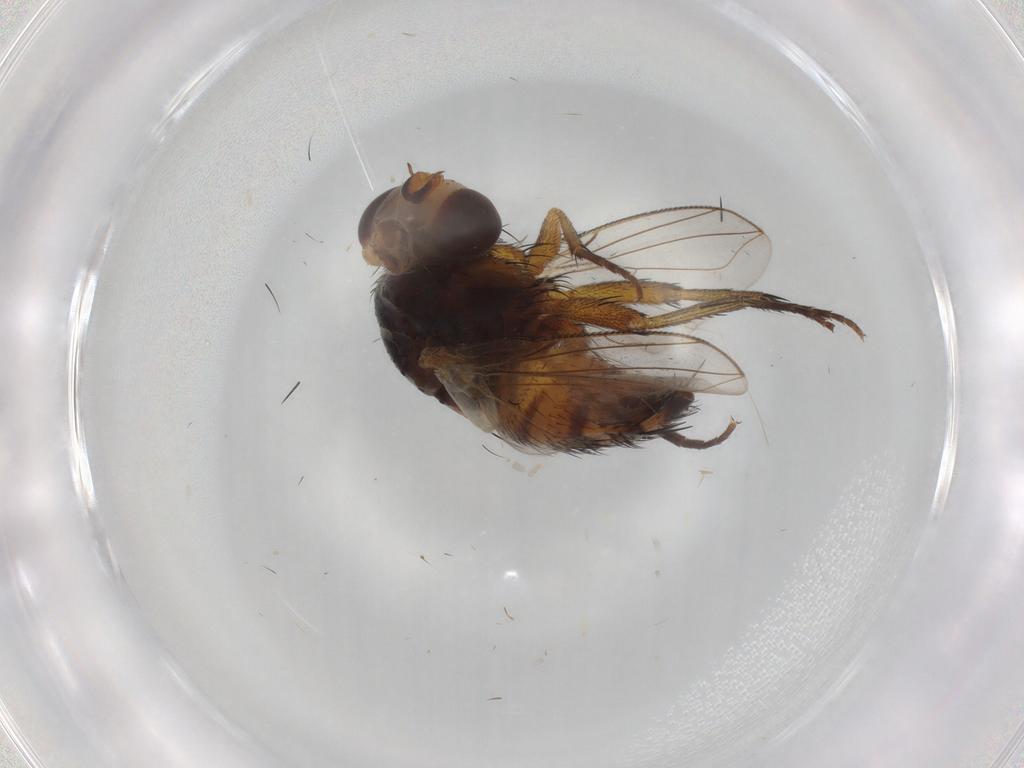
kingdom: Animalia
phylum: Arthropoda
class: Insecta
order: Diptera
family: Syrphidae
